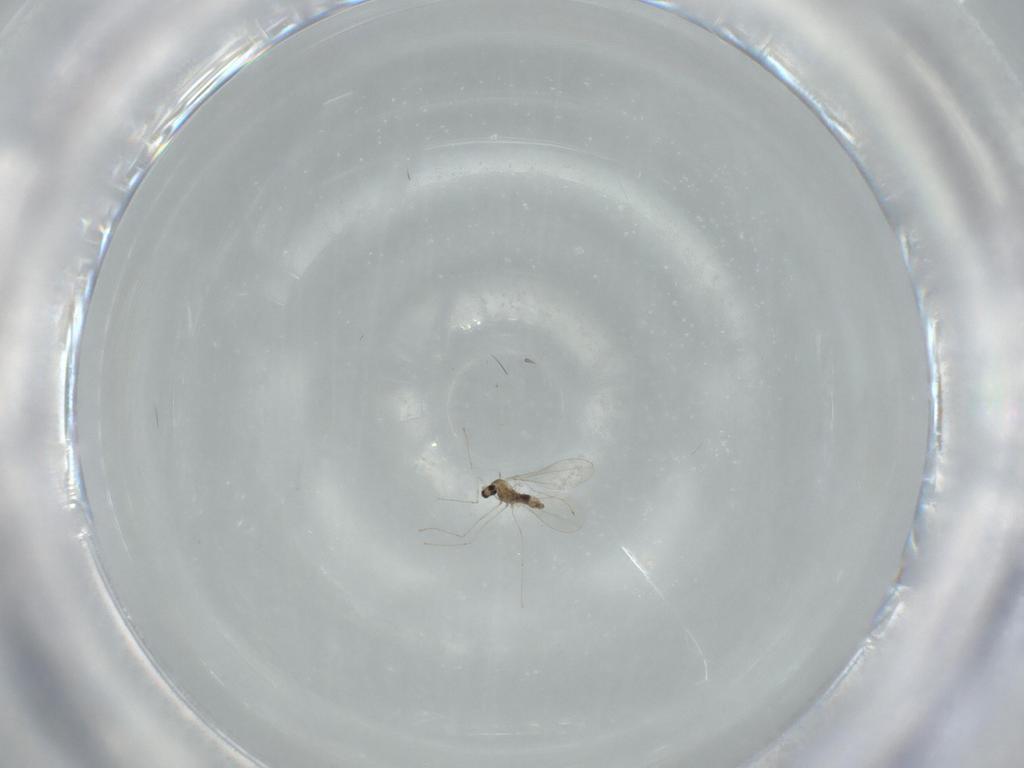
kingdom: Animalia
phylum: Arthropoda
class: Insecta
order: Diptera
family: Cecidomyiidae
